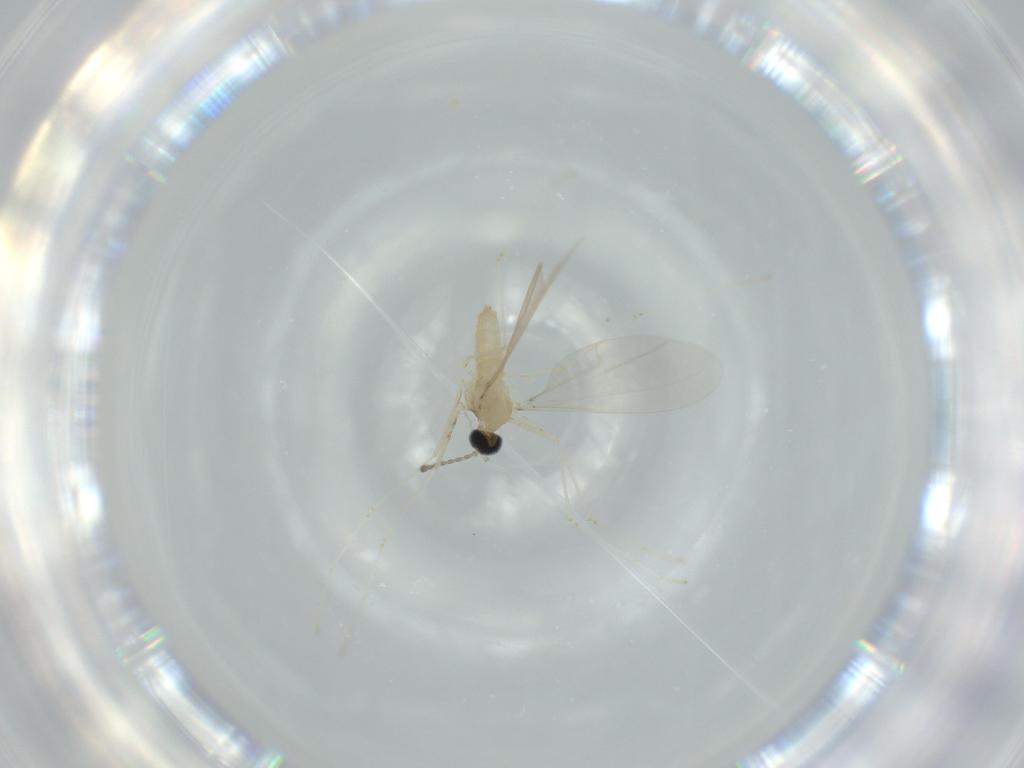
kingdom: Animalia
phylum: Arthropoda
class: Insecta
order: Diptera
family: Cecidomyiidae
